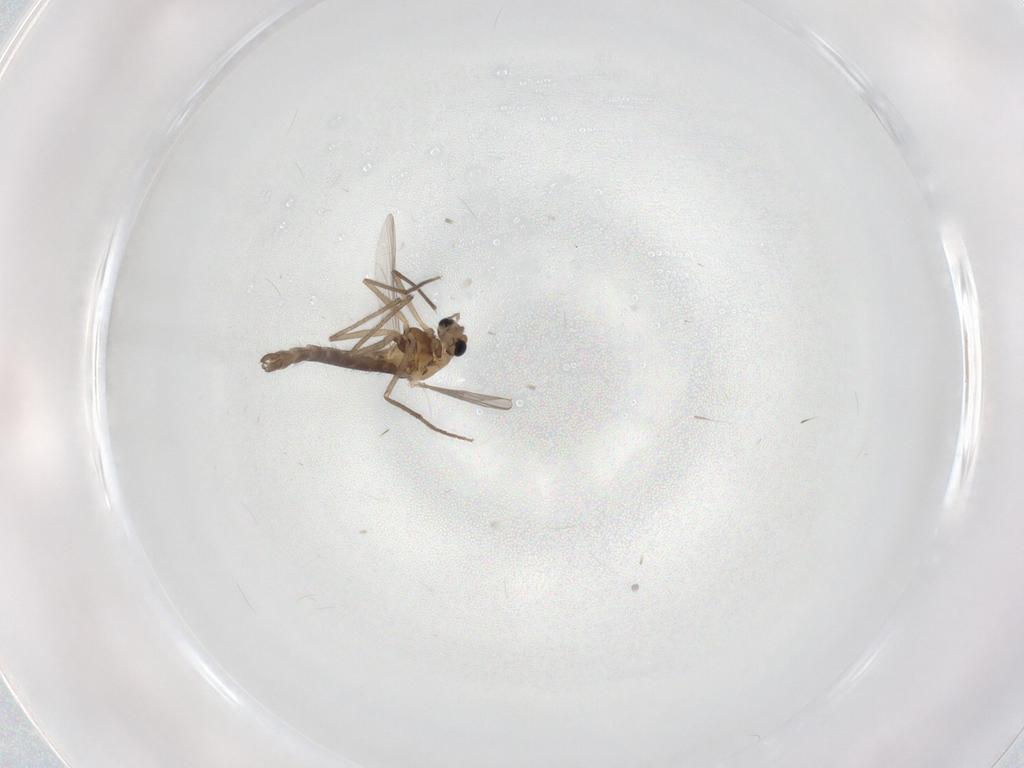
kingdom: Animalia
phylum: Arthropoda
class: Insecta
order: Diptera
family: Chironomidae
